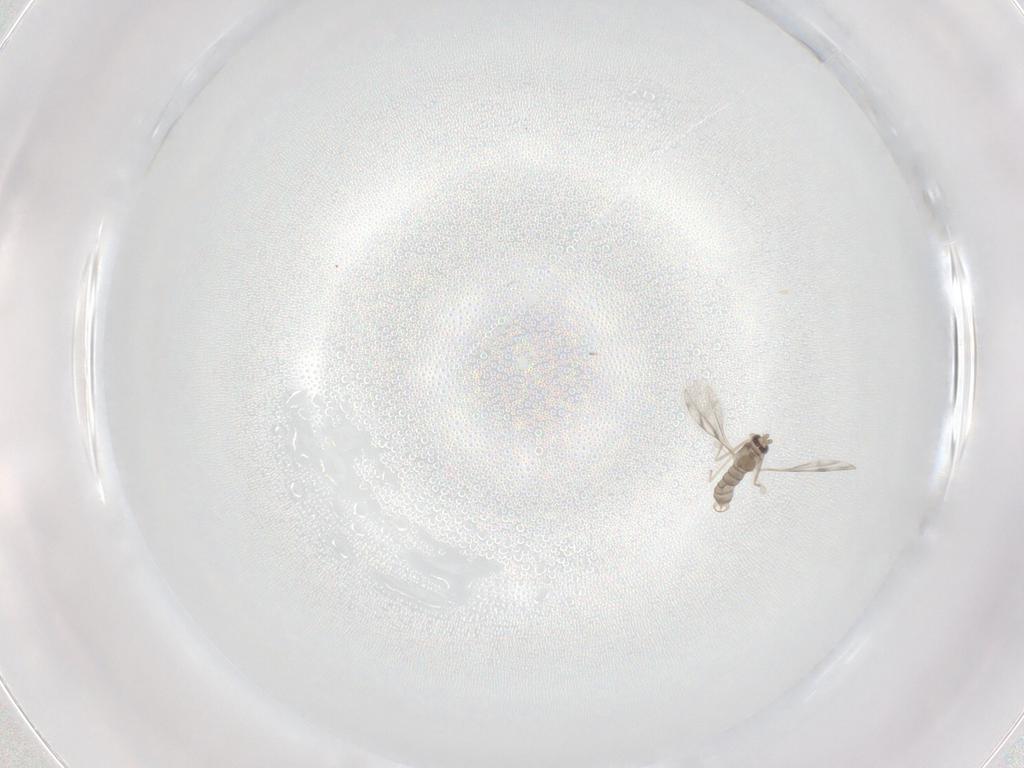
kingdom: Animalia
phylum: Arthropoda
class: Insecta
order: Diptera
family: Cecidomyiidae
